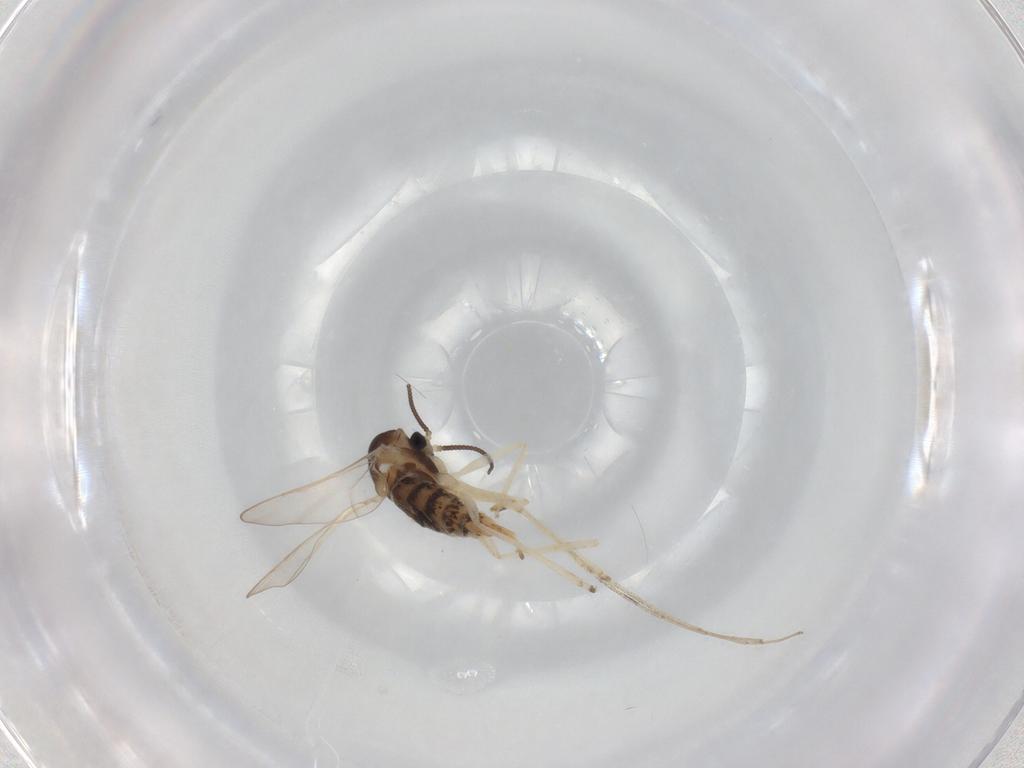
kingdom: Animalia
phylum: Arthropoda
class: Insecta
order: Diptera
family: Cecidomyiidae
